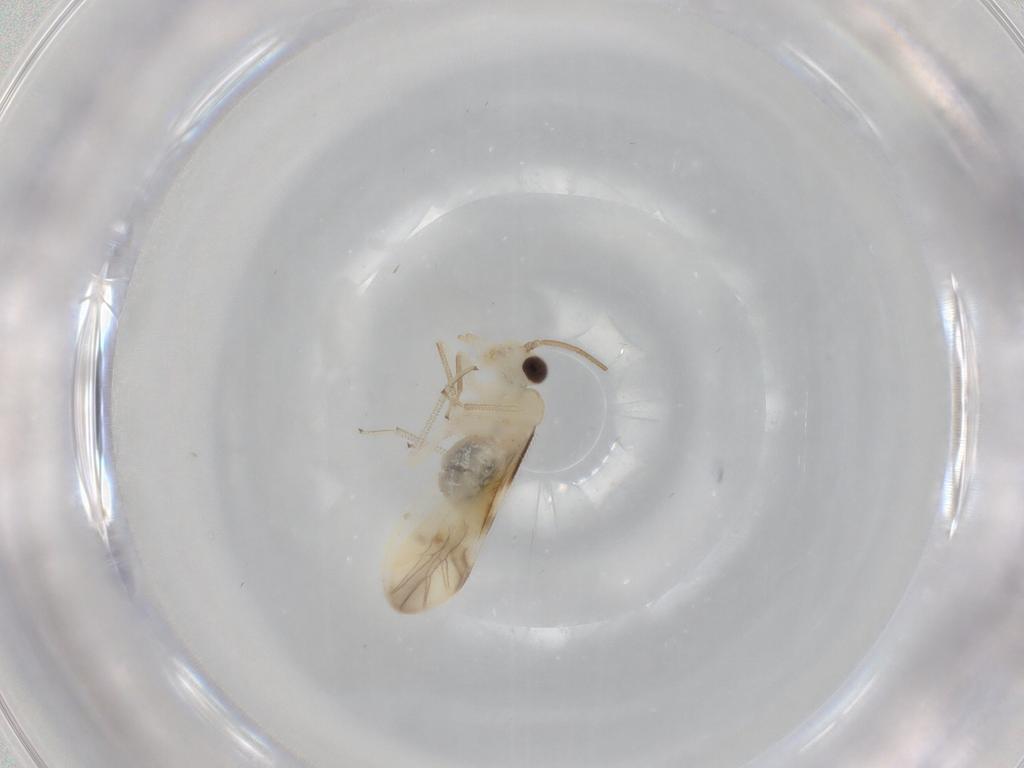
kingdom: Animalia
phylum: Arthropoda
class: Insecta
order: Psocodea
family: Caeciliusidae
